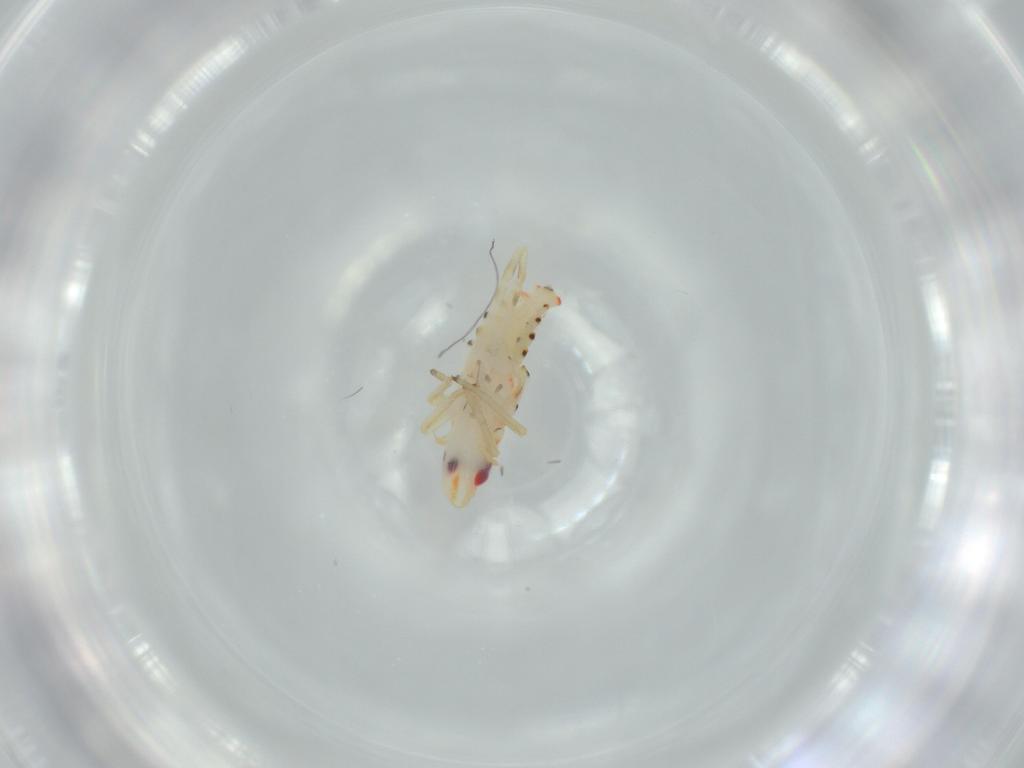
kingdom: Animalia
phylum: Arthropoda
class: Insecta
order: Hemiptera
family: Tropiduchidae
